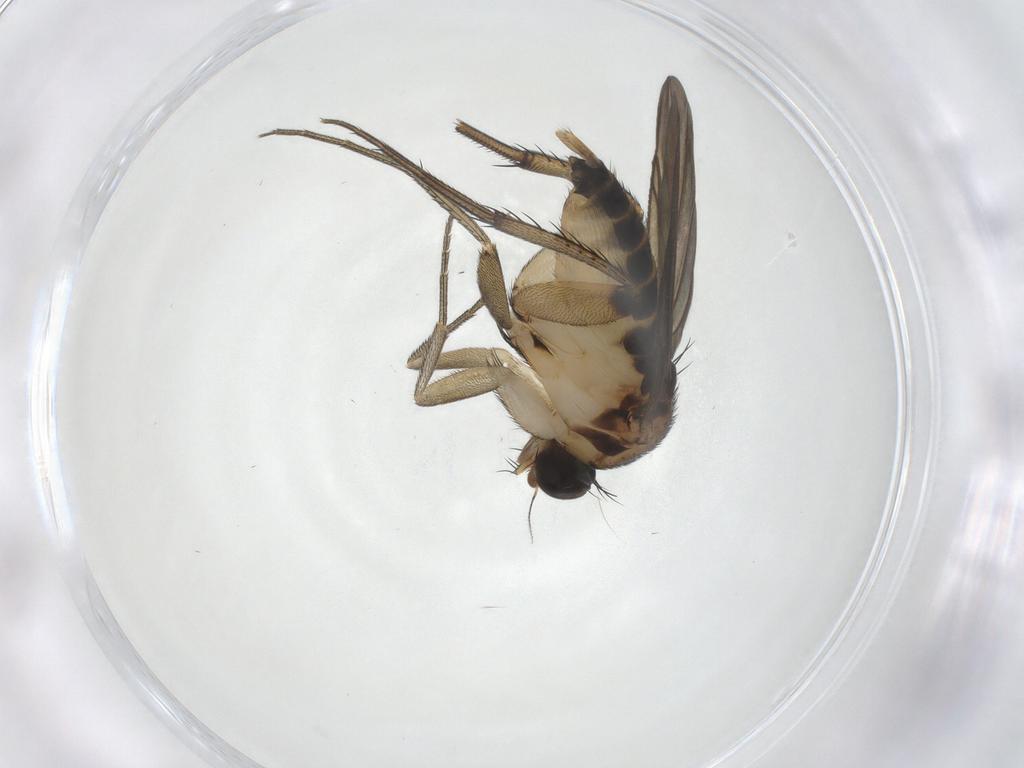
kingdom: Animalia
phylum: Arthropoda
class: Insecta
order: Diptera
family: Phoridae
